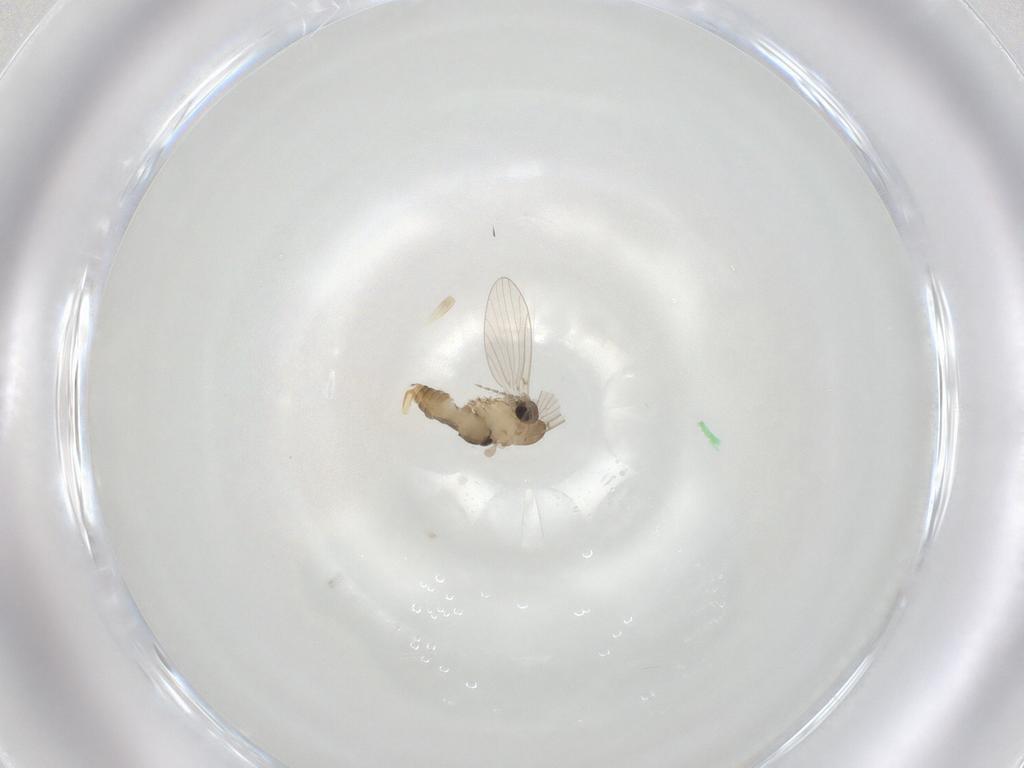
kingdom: Animalia
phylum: Arthropoda
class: Insecta
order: Diptera
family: Psychodidae
